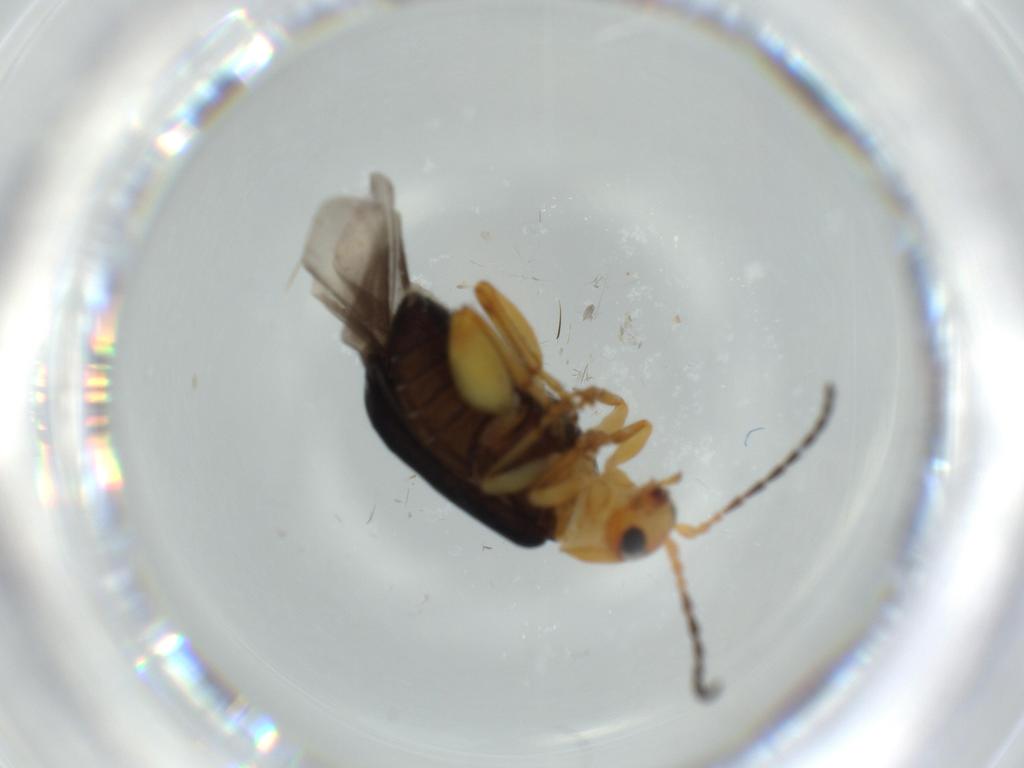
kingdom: Animalia
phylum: Arthropoda
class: Insecta
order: Coleoptera
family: Chrysomelidae
